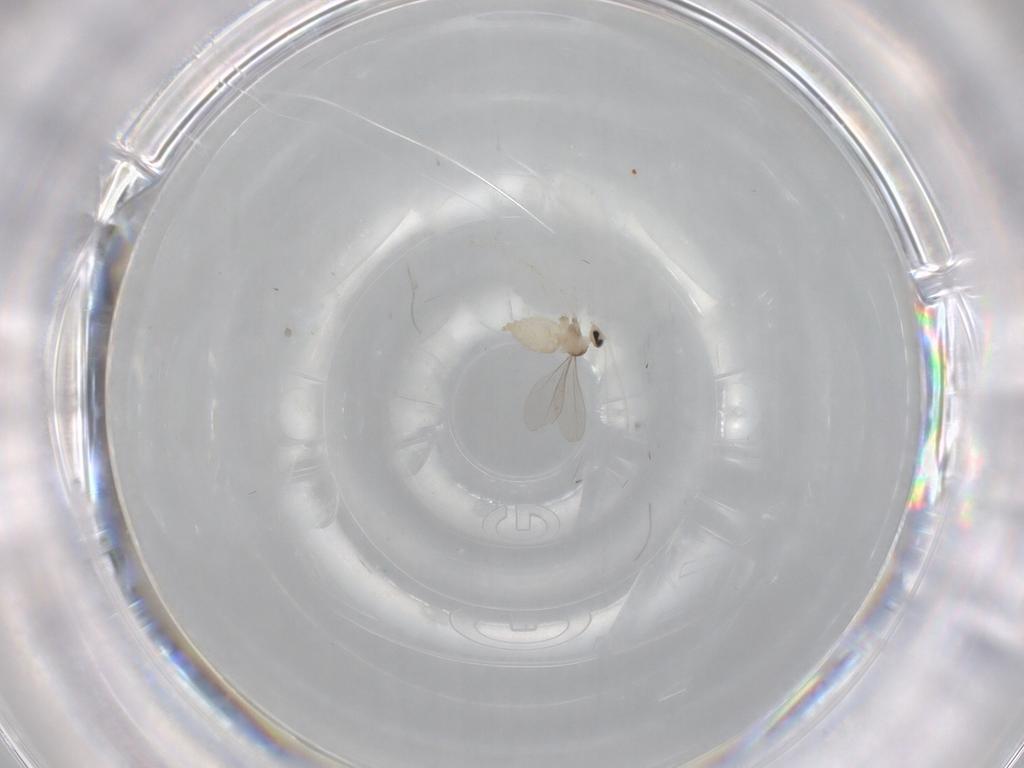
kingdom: Animalia
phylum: Arthropoda
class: Insecta
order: Diptera
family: Cecidomyiidae
